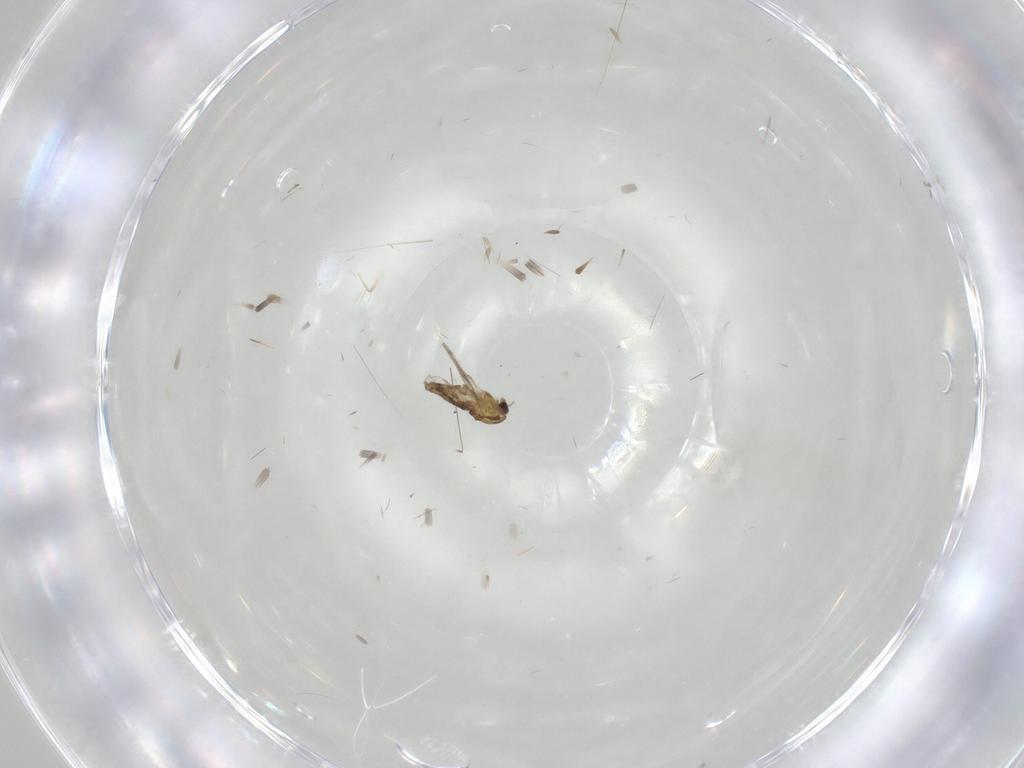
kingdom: Animalia
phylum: Arthropoda
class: Insecta
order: Diptera
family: Chironomidae
